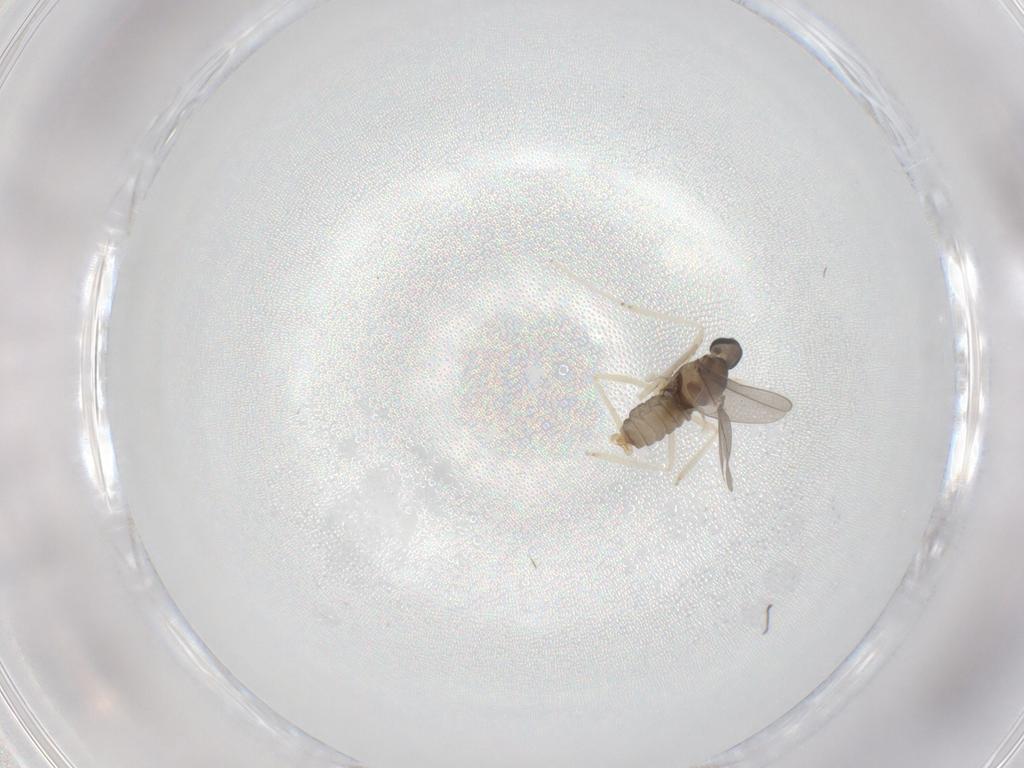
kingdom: Animalia
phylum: Arthropoda
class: Insecta
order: Diptera
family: Cecidomyiidae
